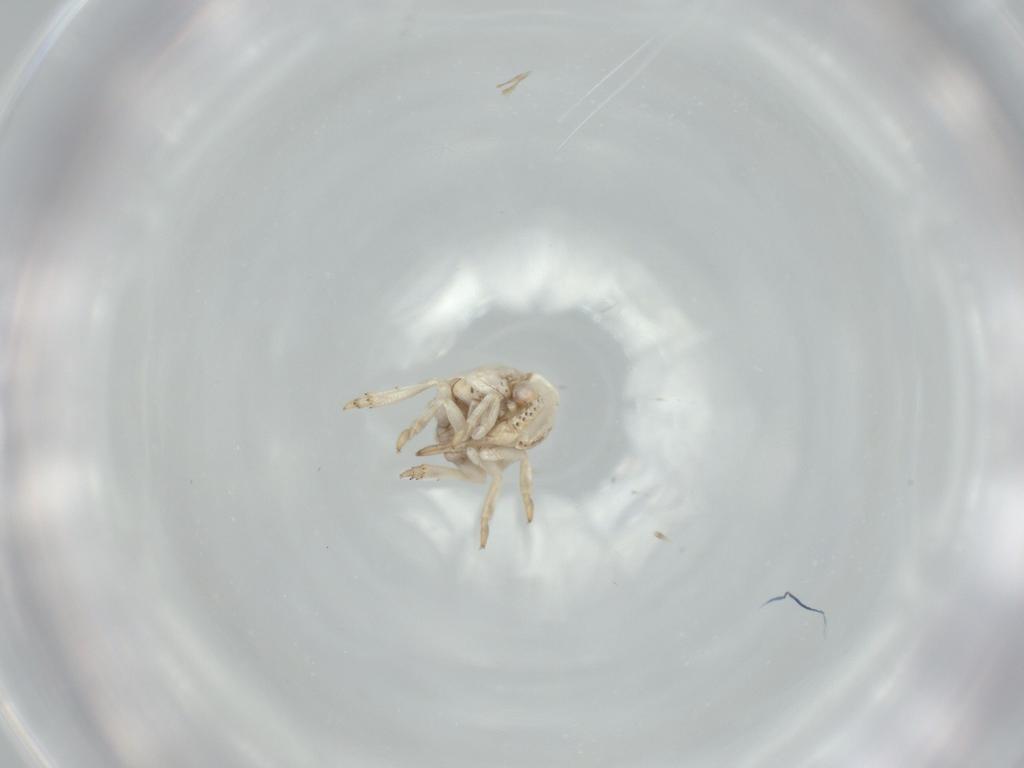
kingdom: Animalia
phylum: Arthropoda
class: Insecta
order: Hemiptera
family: Acanaloniidae
